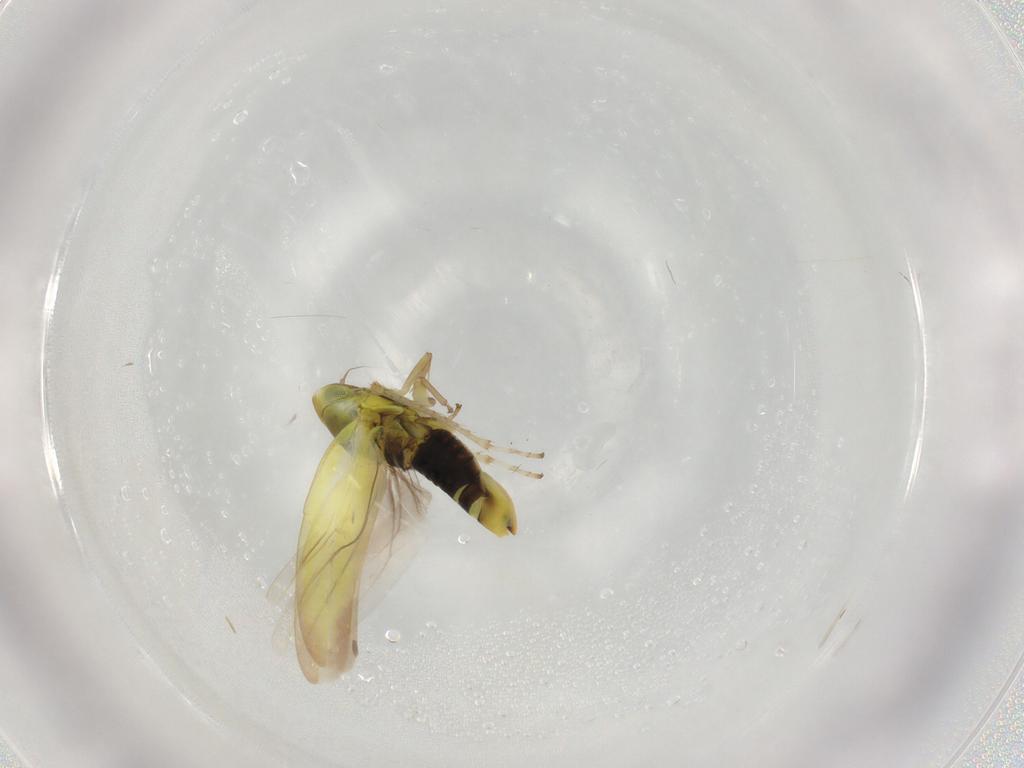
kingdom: Animalia
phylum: Arthropoda
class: Insecta
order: Hemiptera
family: Cicadellidae
